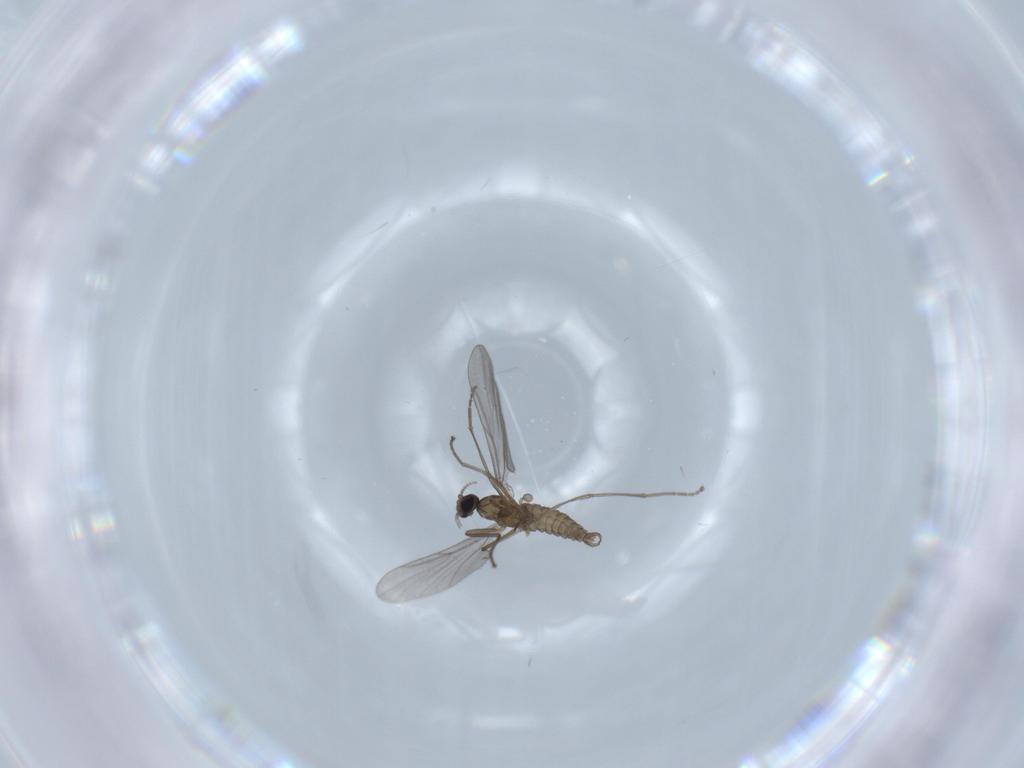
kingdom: Animalia
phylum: Arthropoda
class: Insecta
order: Diptera
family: Cecidomyiidae
